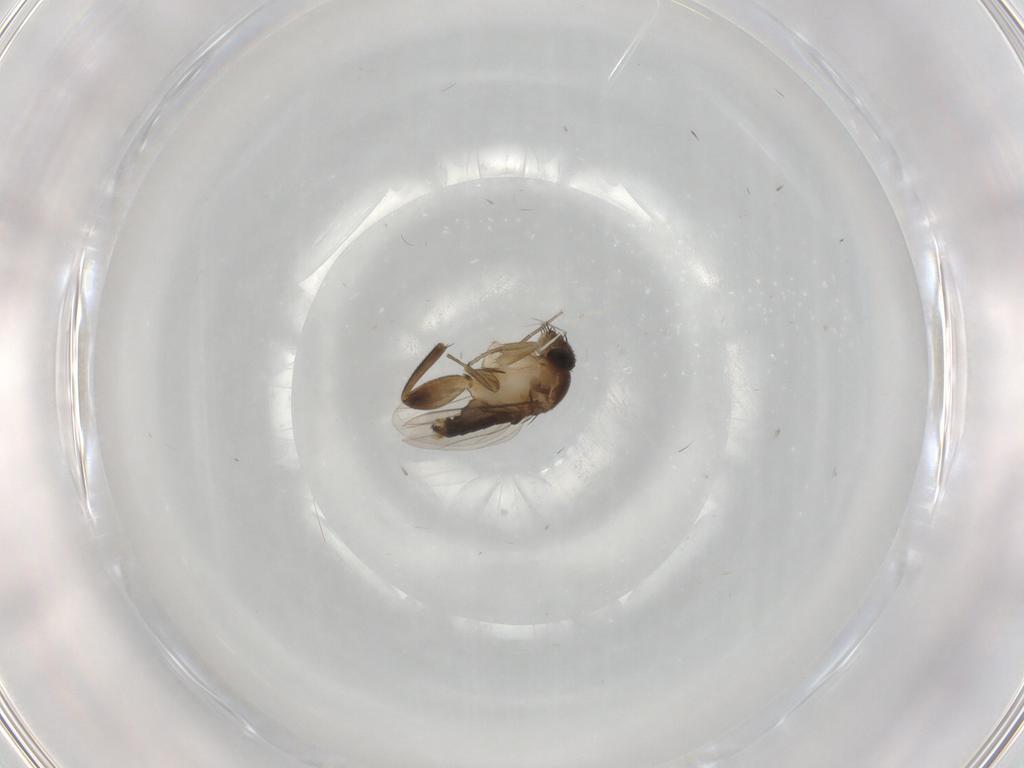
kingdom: Animalia
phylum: Arthropoda
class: Insecta
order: Diptera
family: Phoridae
